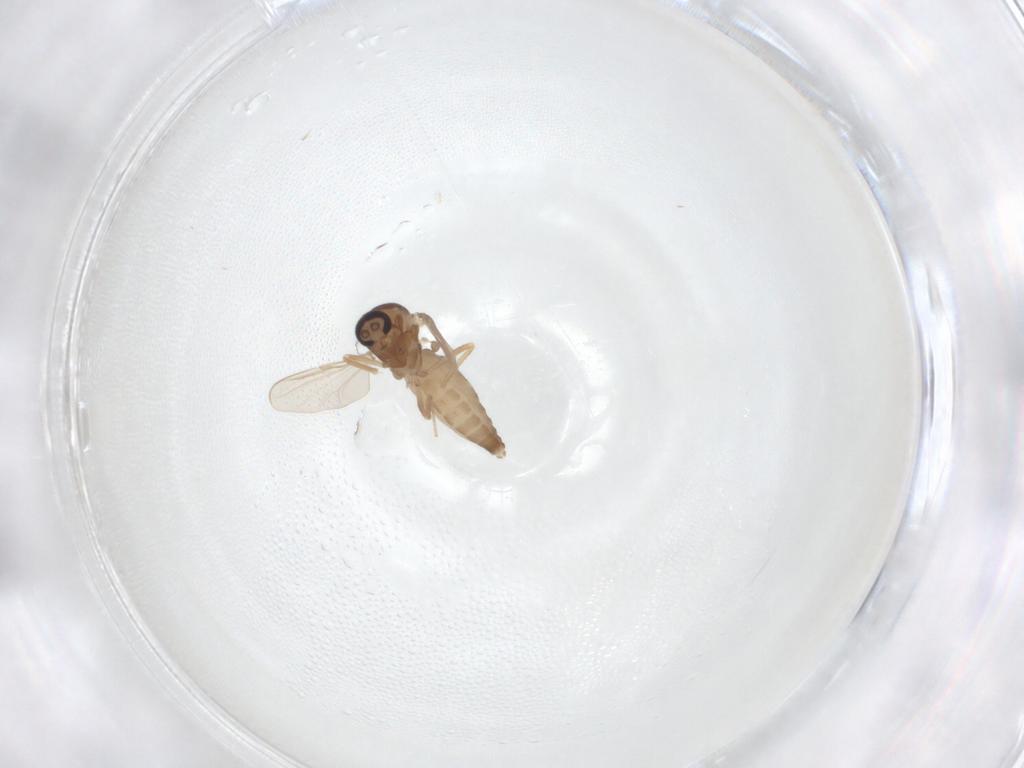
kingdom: Animalia
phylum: Arthropoda
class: Insecta
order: Diptera
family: Ceratopogonidae
